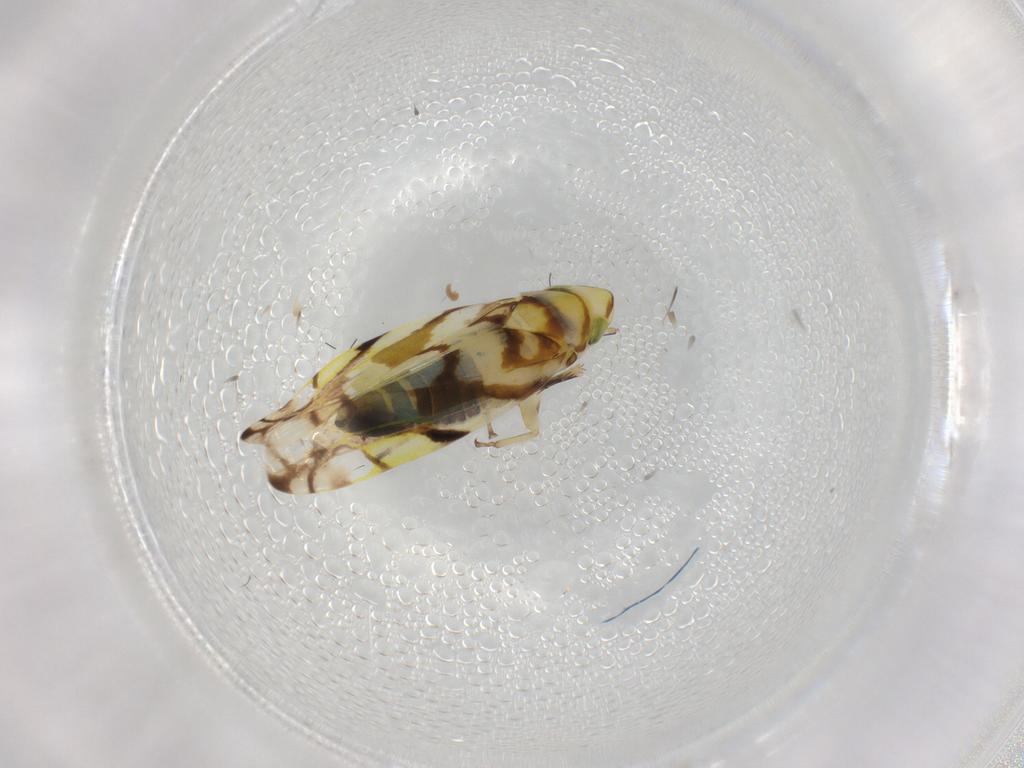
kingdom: Animalia
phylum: Arthropoda
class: Insecta
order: Hemiptera
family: Cicadellidae
